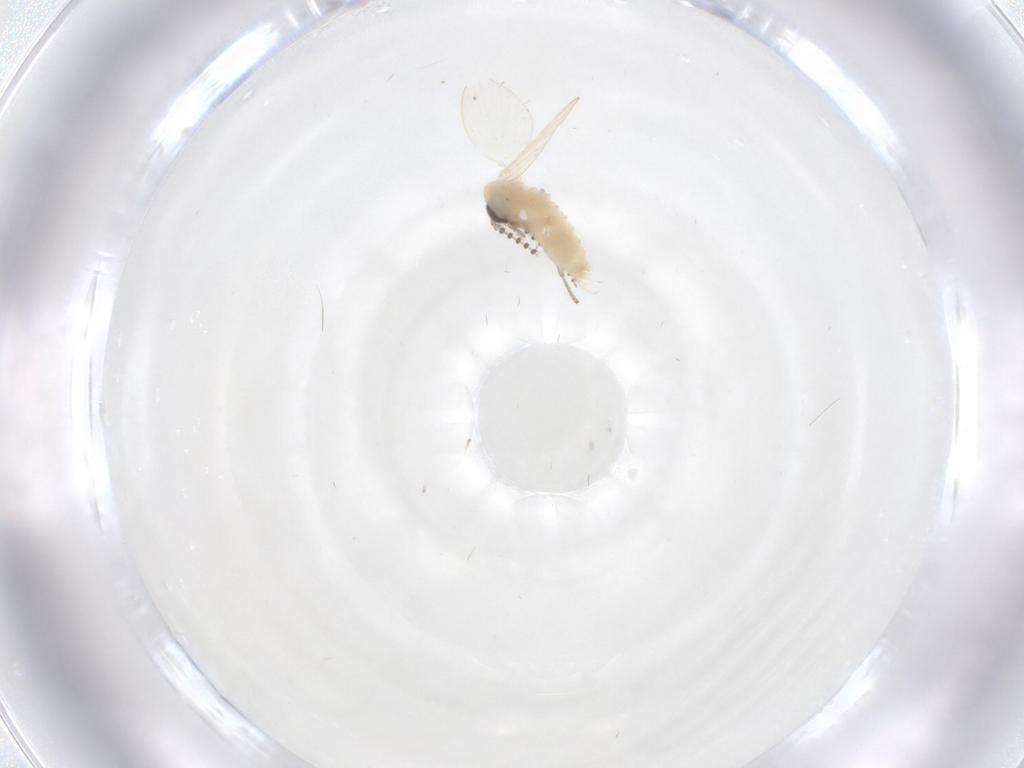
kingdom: Animalia
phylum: Arthropoda
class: Insecta
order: Diptera
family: Psychodidae
